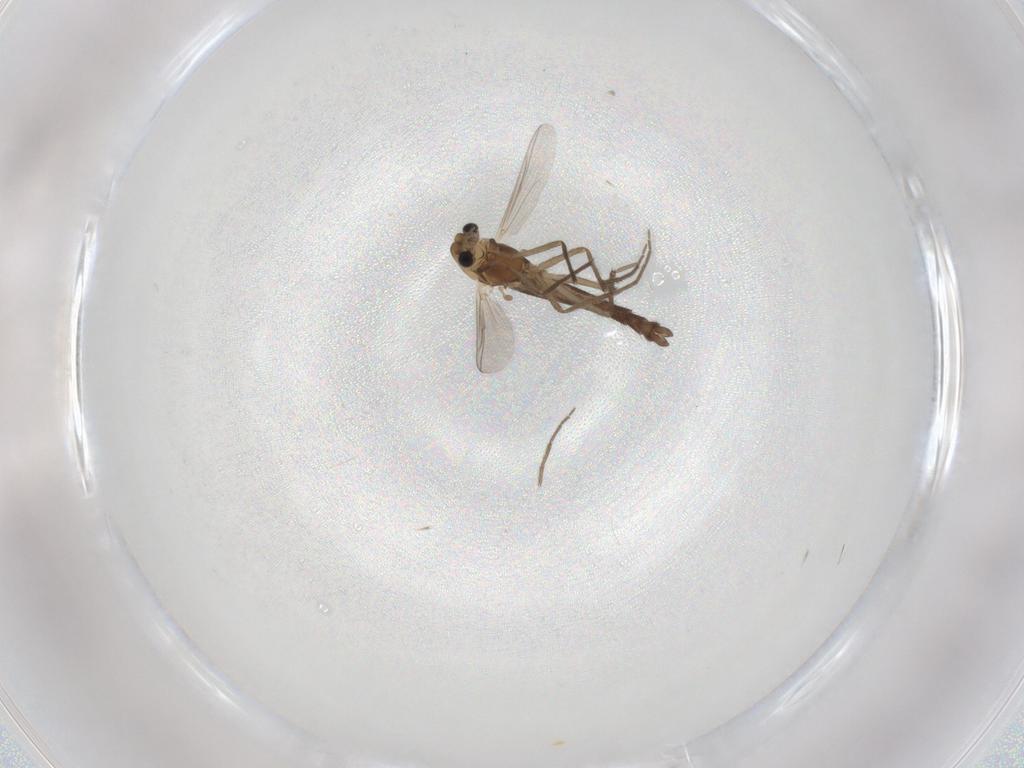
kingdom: Animalia
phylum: Arthropoda
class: Insecta
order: Diptera
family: Chironomidae
